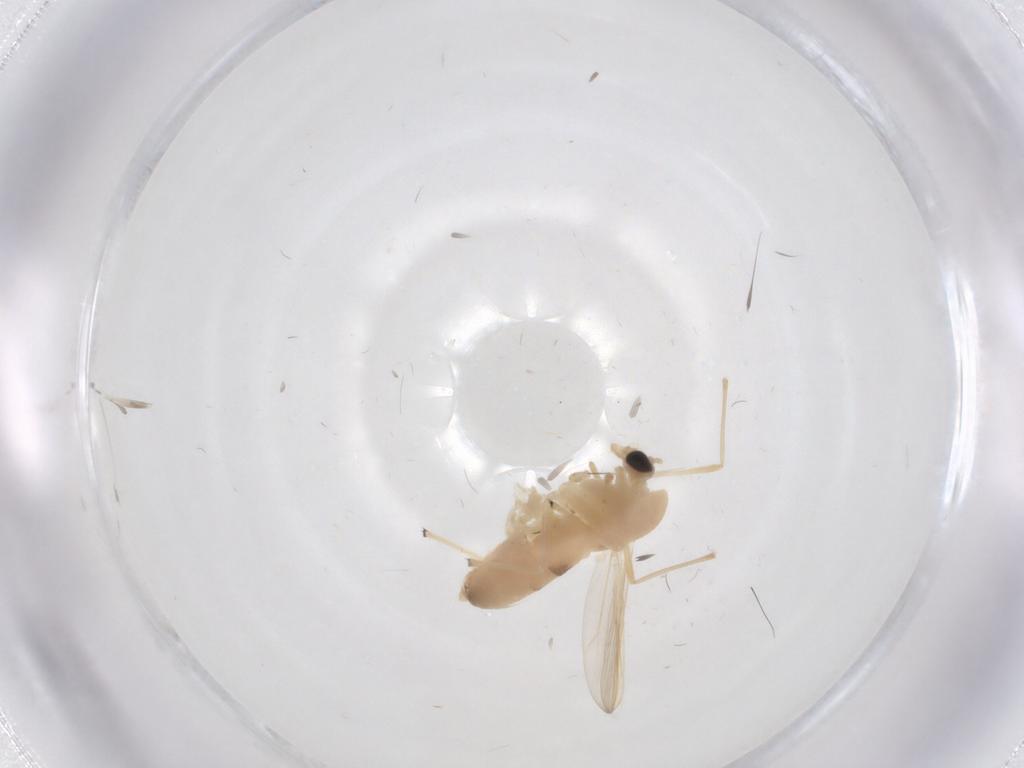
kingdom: Animalia
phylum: Arthropoda
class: Insecta
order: Diptera
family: Chironomidae
